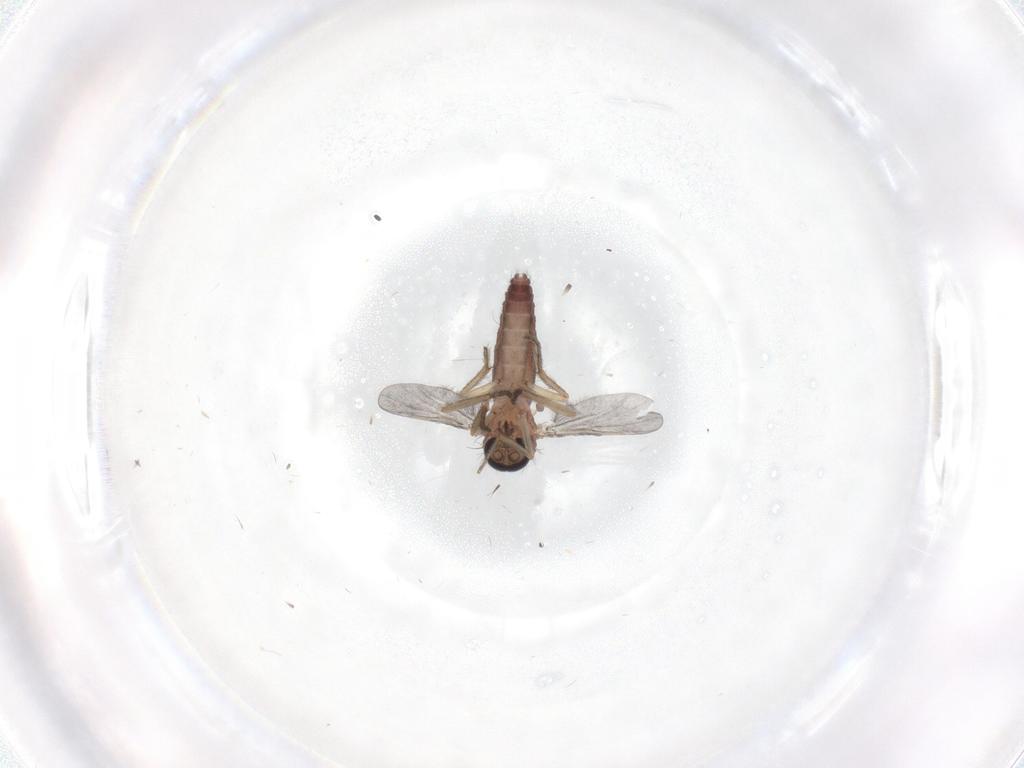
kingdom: Animalia
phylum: Arthropoda
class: Insecta
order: Diptera
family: Ceratopogonidae
